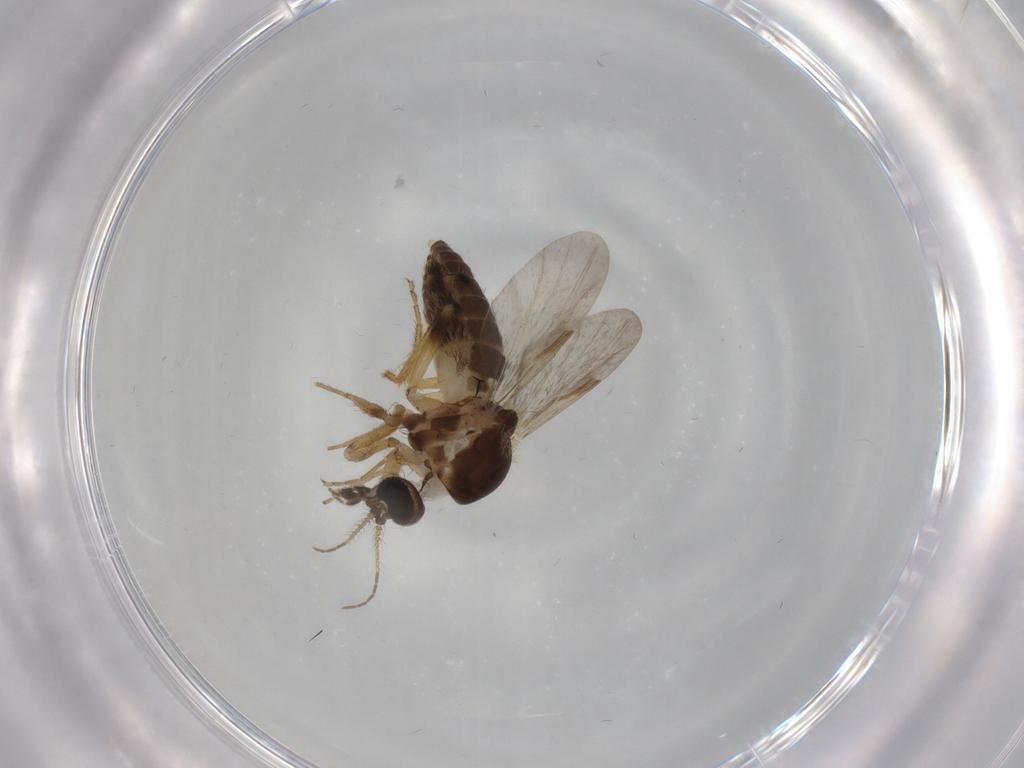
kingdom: Animalia
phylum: Arthropoda
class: Insecta
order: Diptera
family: Ceratopogonidae
